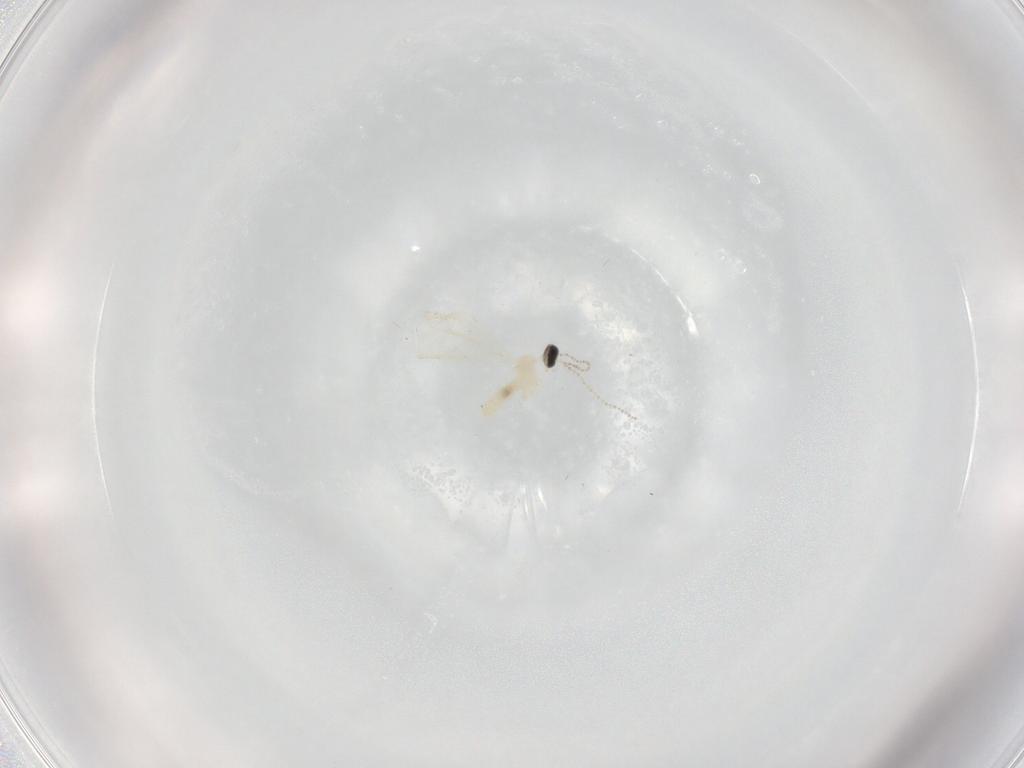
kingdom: Animalia
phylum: Arthropoda
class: Insecta
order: Diptera
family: Cecidomyiidae
